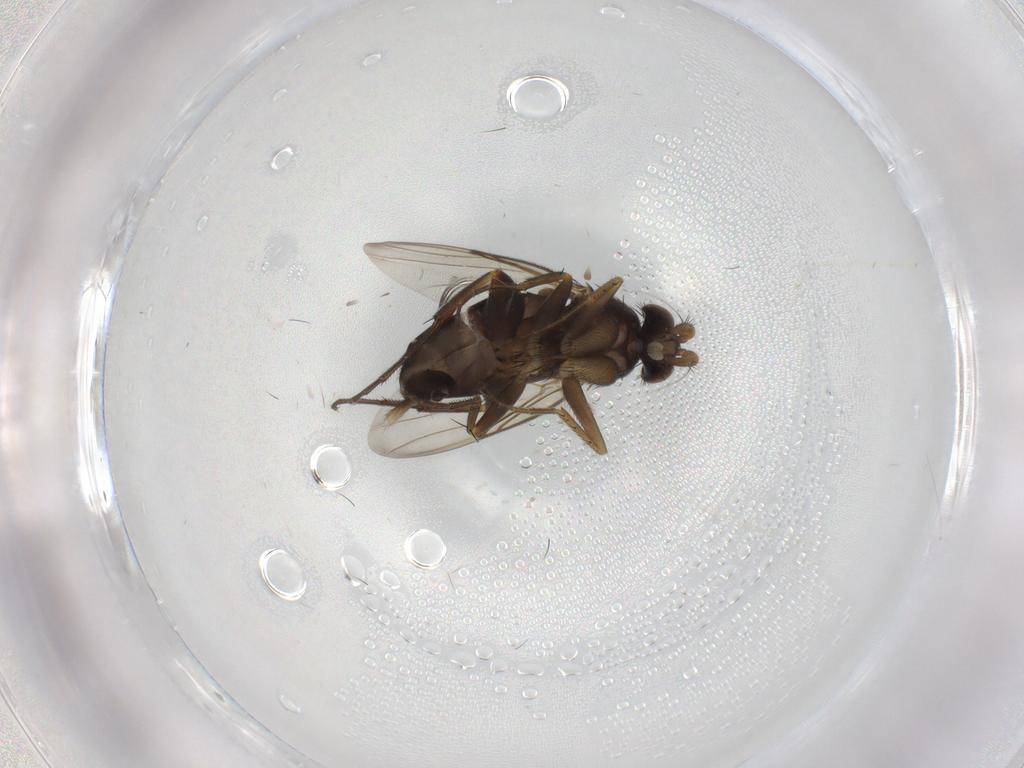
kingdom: Animalia
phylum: Arthropoda
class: Insecta
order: Diptera
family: Phoridae
